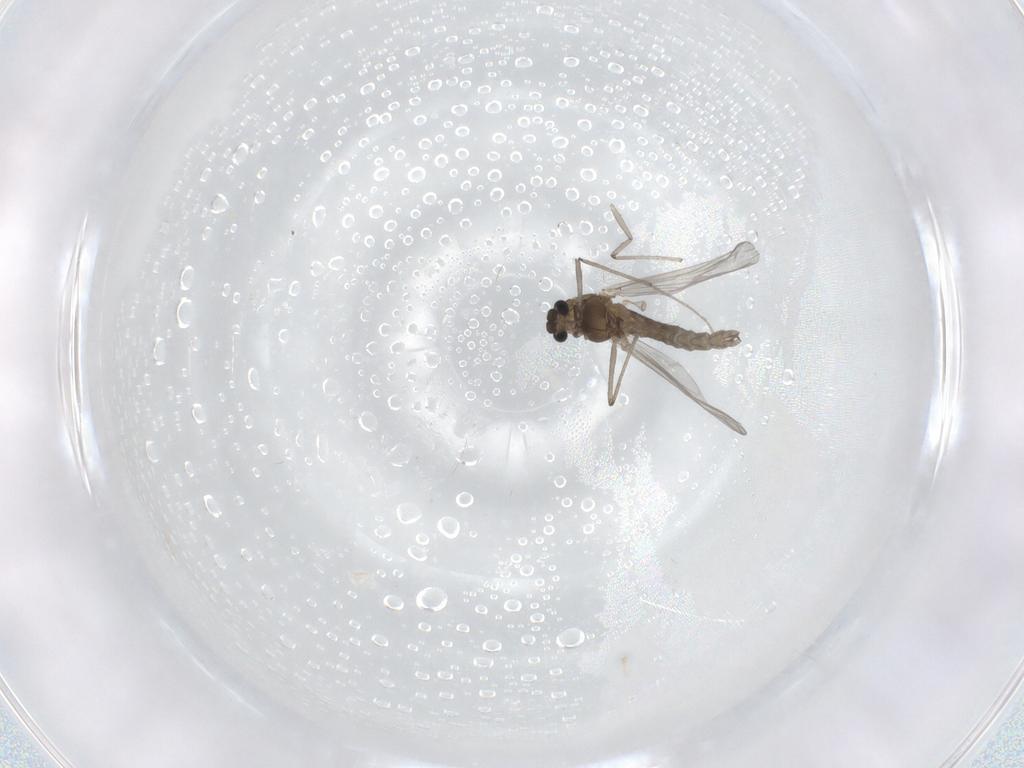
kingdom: Animalia
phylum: Arthropoda
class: Insecta
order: Diptera
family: Chironomidae
